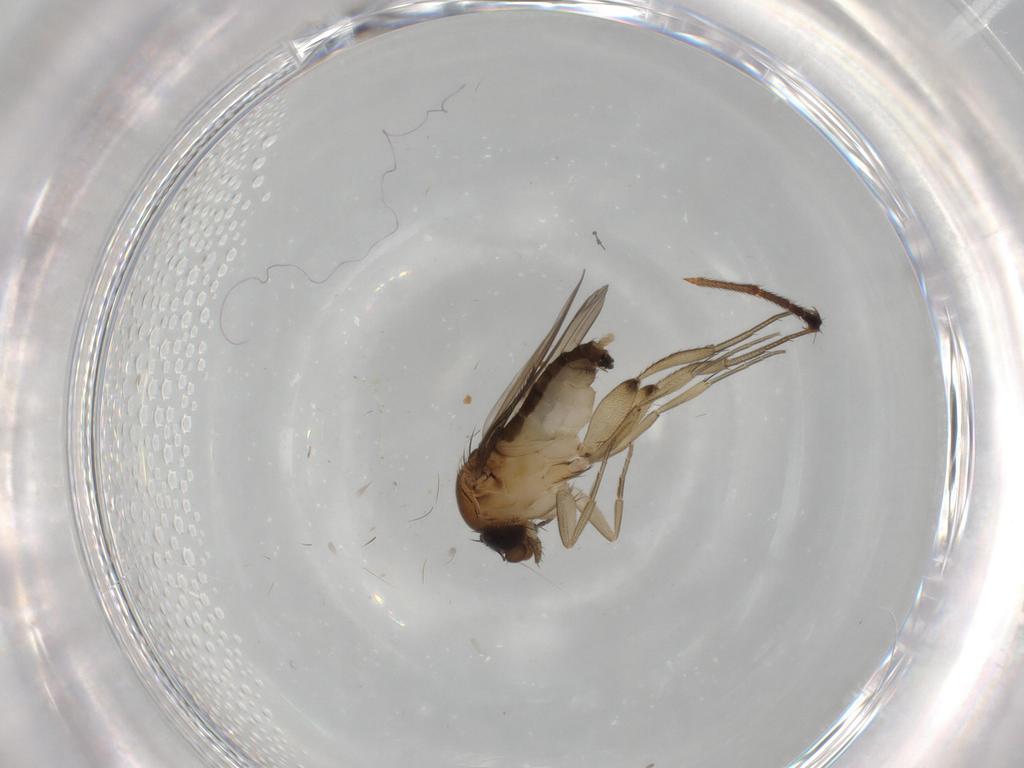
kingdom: Animalia
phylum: Arthropoda
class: Insecta
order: Diptera
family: Phoridae
